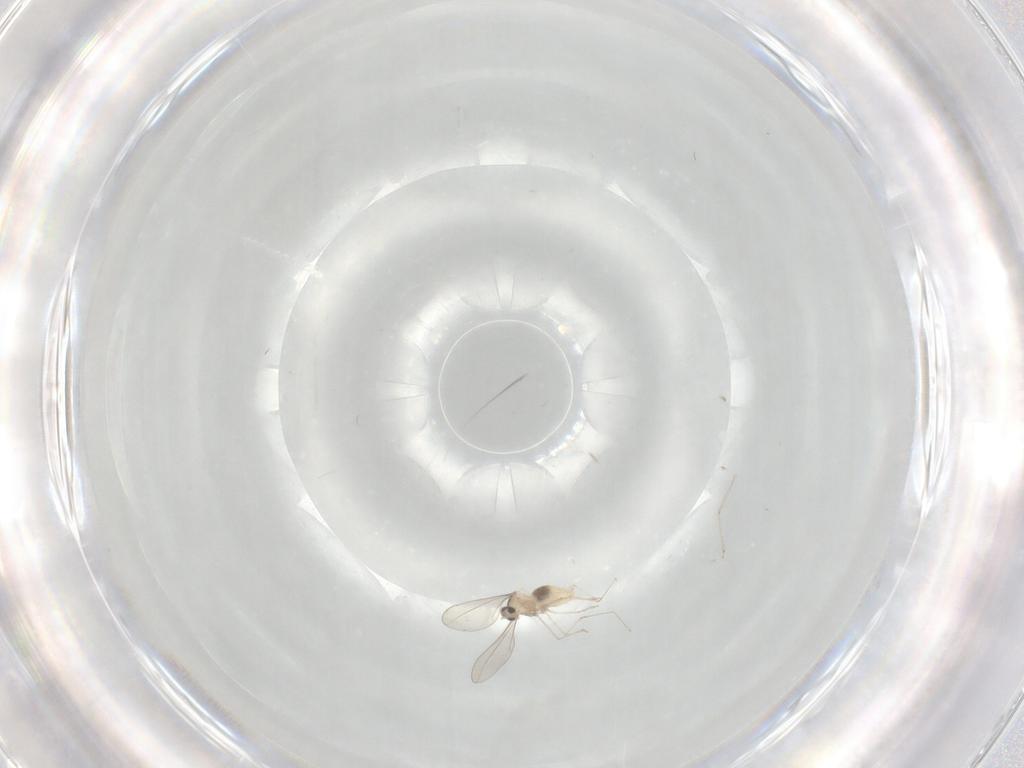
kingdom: Animalia
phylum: Arthropoda
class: Insecta
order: Diptera
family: Cecidomyiidae
